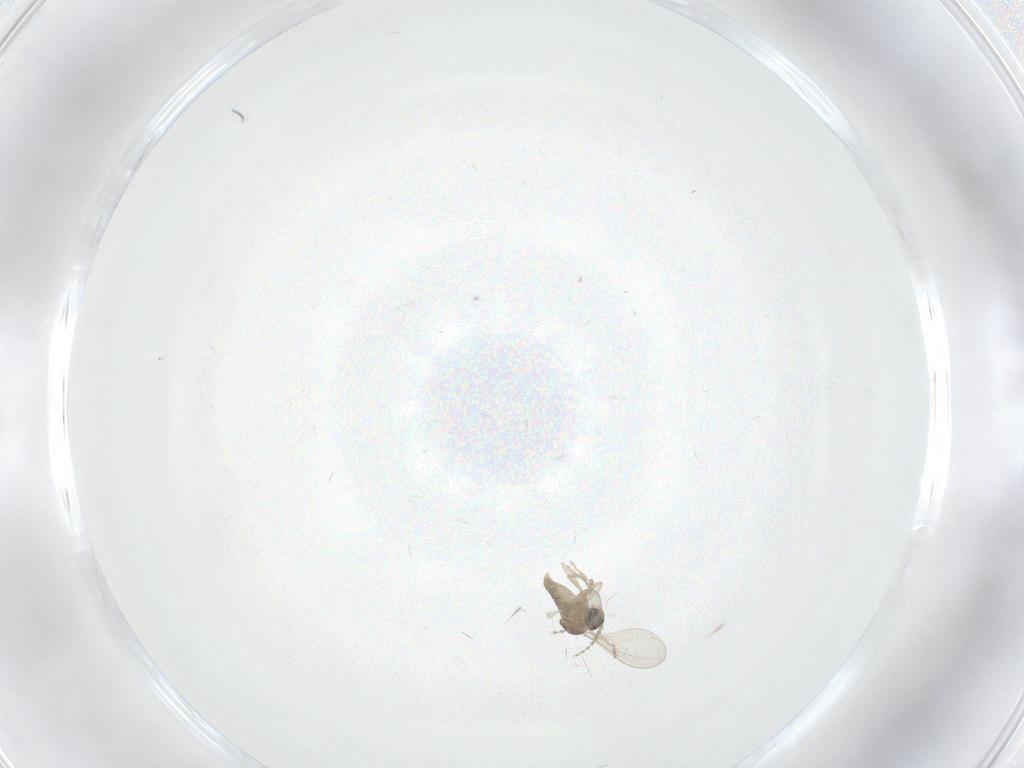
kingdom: Animalia
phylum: Arthropoda
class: Insecta
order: Diptera
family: Cecidomyiidae
